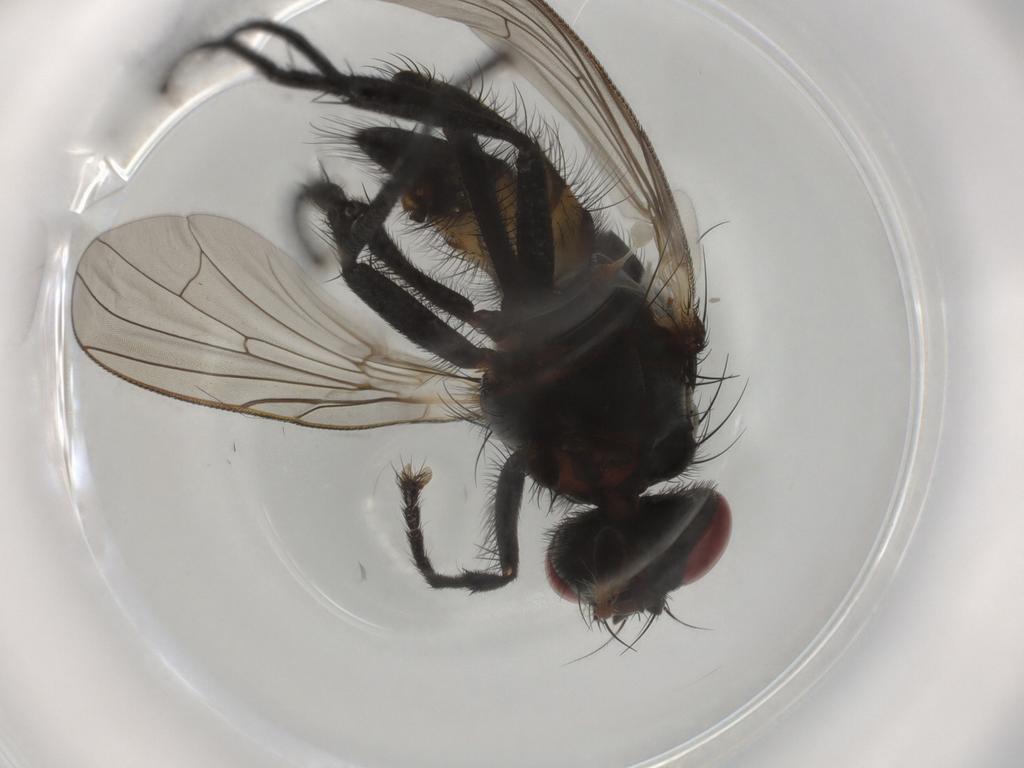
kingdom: Animalia
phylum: Arthropoda
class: Insecta
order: Diptera
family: Anthomyiidae
